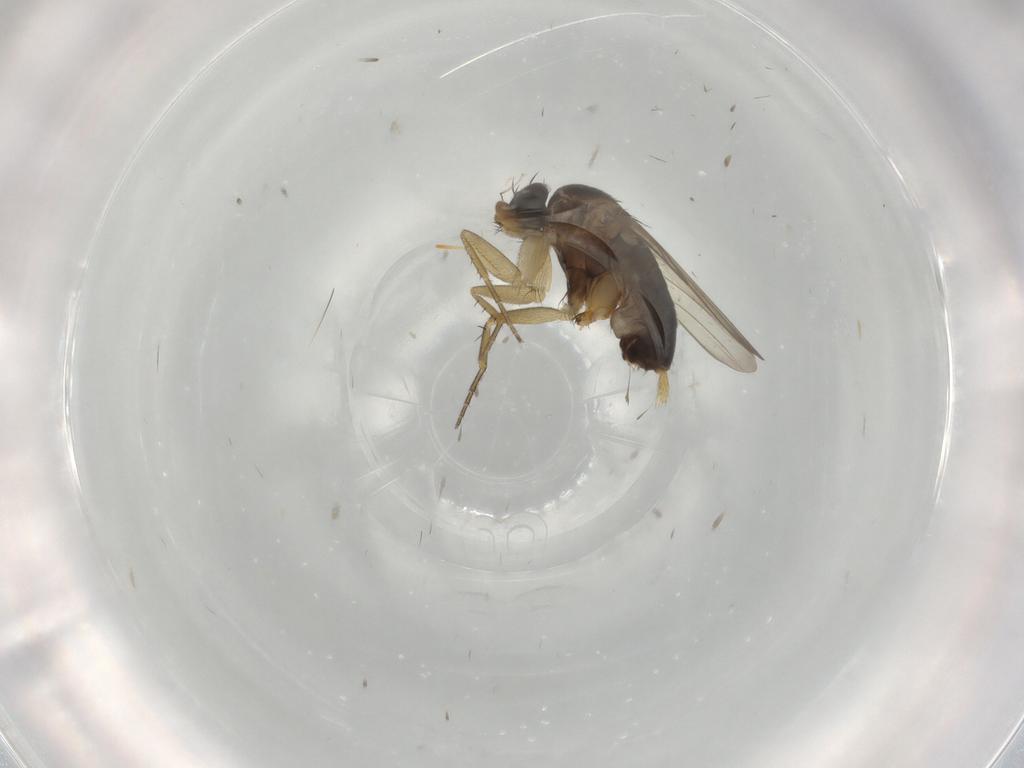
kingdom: Animalia
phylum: Arthropoda
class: Insecta
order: Diptera
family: Phoridae
